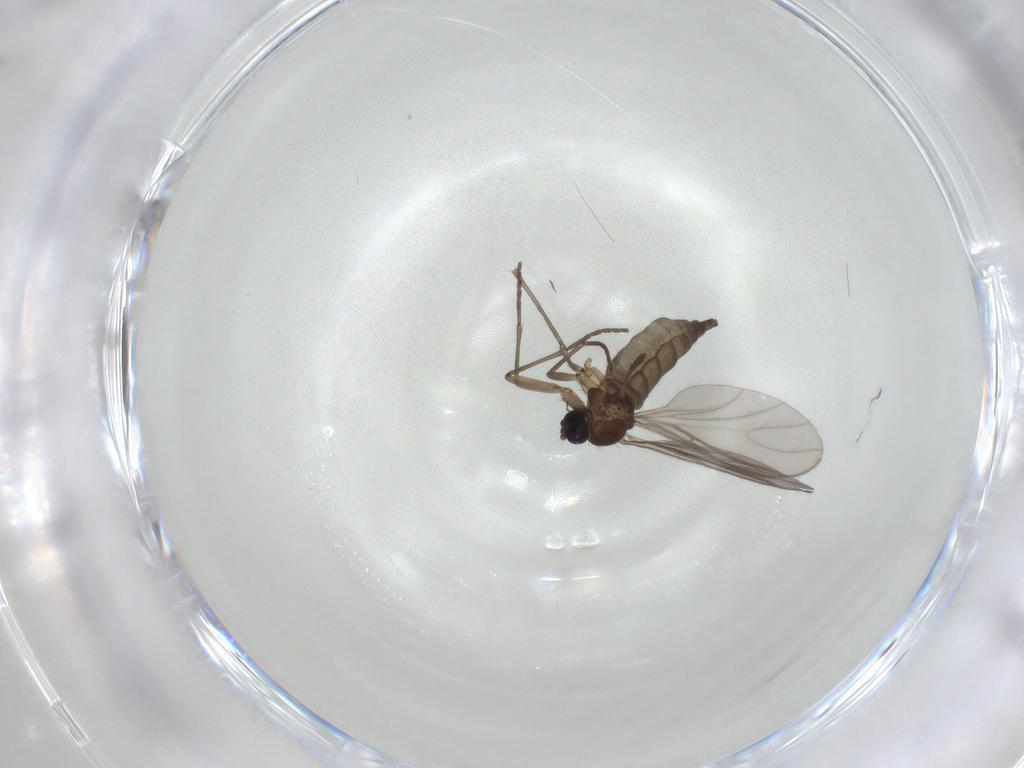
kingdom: Animalia
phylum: Arthropoda
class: Insecta
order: Diptera
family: Sciaridae
